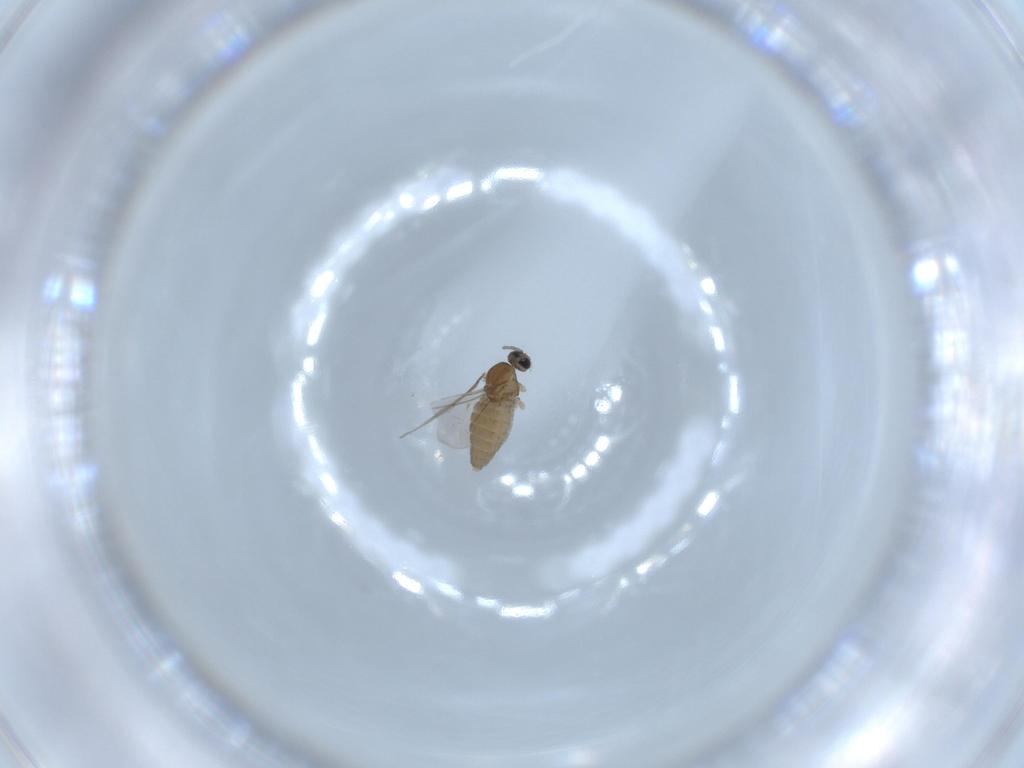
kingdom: Animalia
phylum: Arthropoda
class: Insecta
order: Diptera
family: Cecidomyiidae
